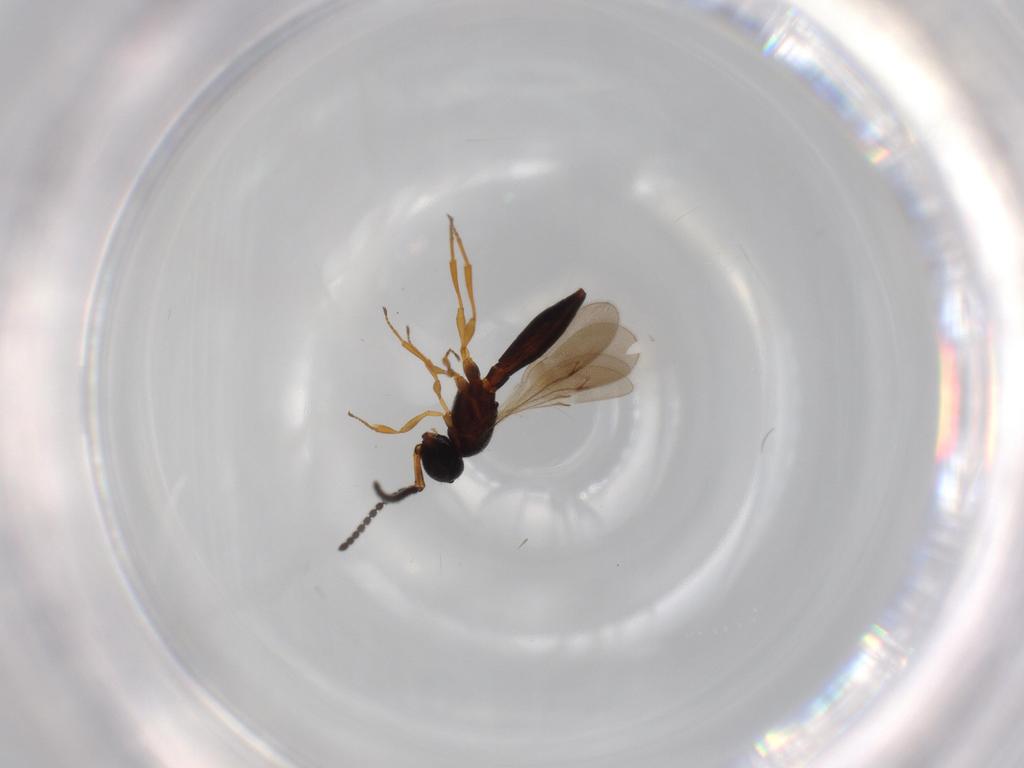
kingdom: Animalia
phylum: Arthropoda
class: Insecta
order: Hymenoptera
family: Scelionidae
